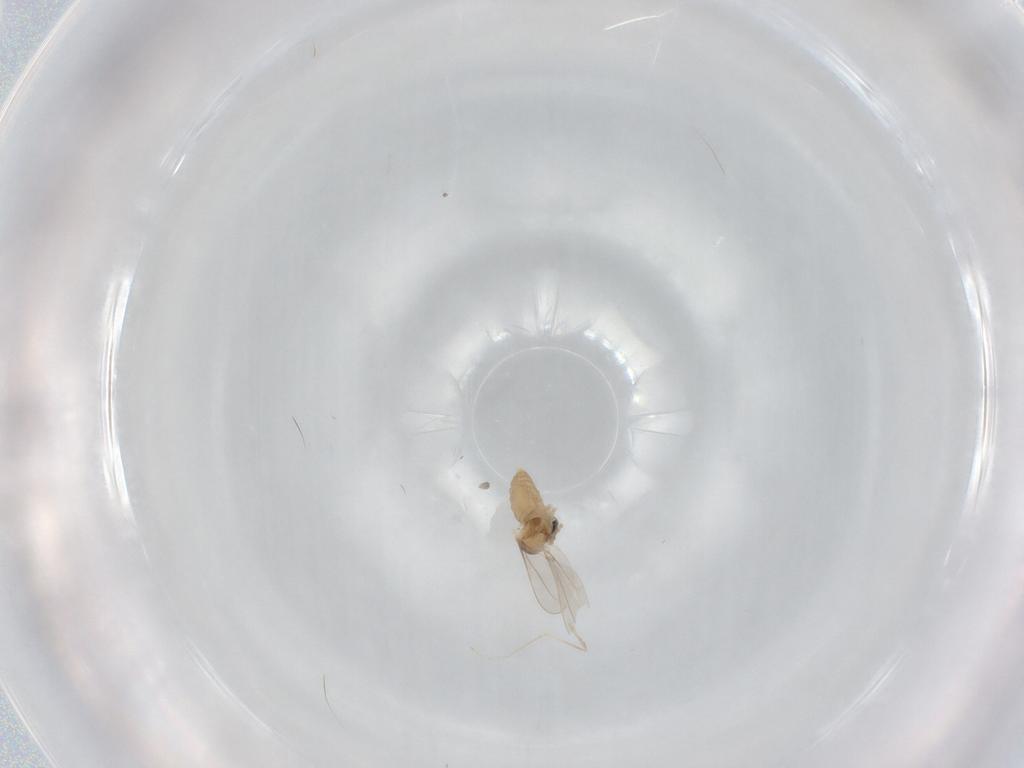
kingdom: Animalia
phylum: Arthropoda
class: Insecta
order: Diptera
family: Cecidomyiidae
